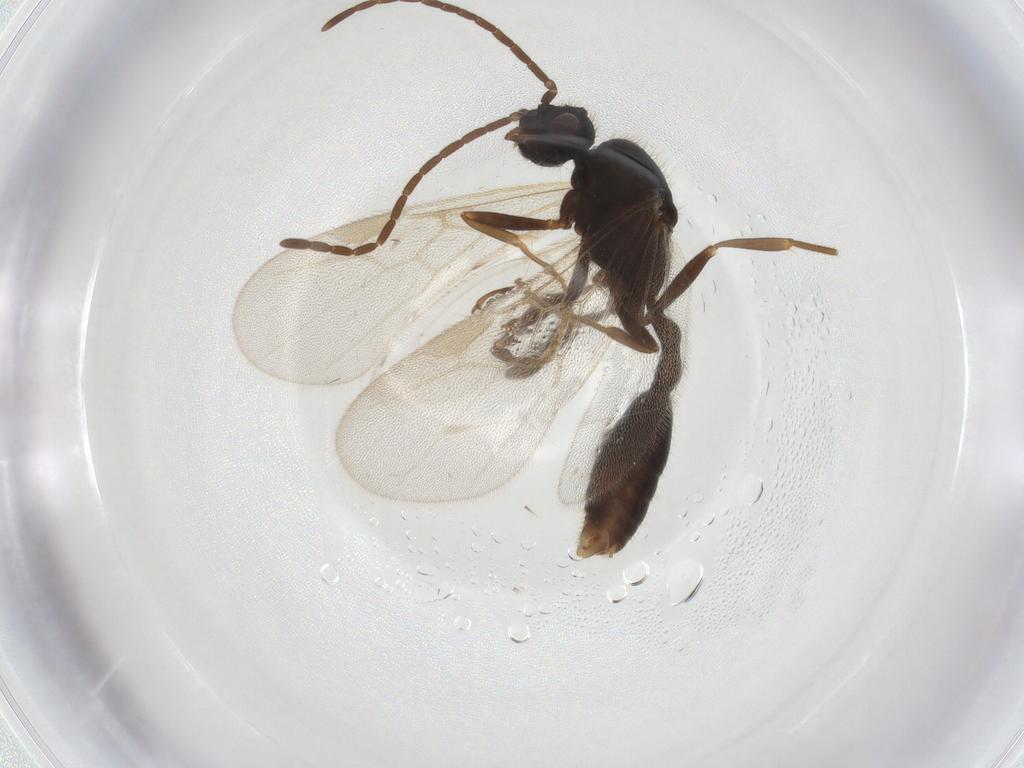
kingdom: Animalia
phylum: Arthropoda
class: Insecta
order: Hymenoptera
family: Formicidae
